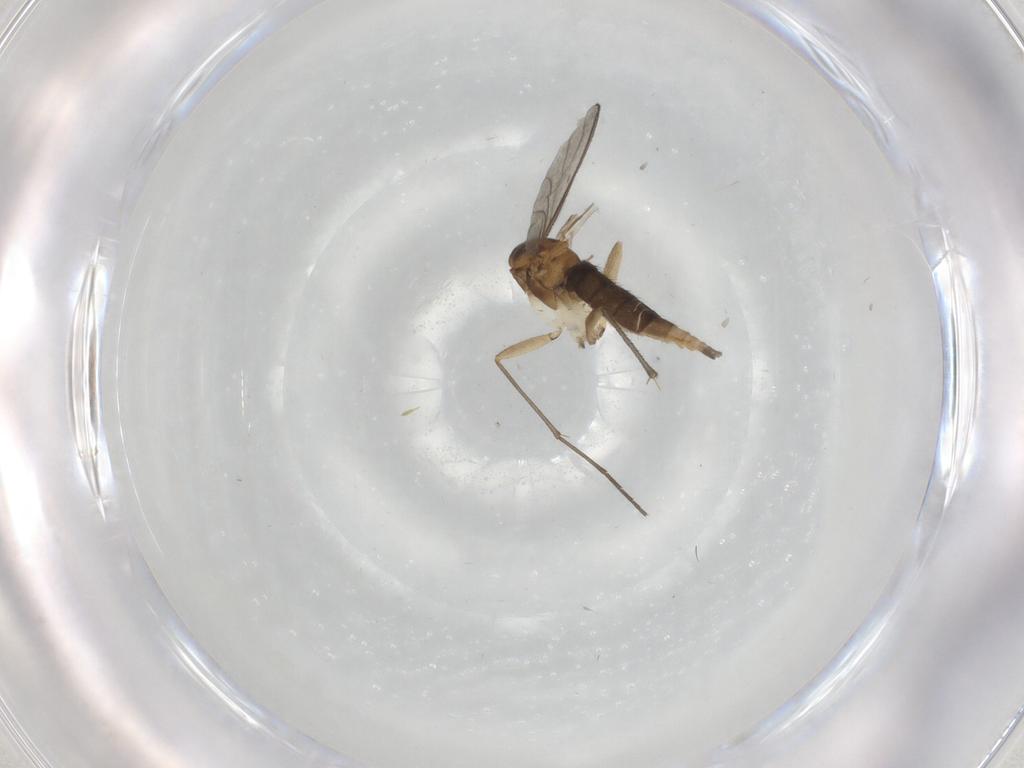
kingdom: Animalia
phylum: Arthropoda
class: Insecta
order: Diptera
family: Sciaridae
